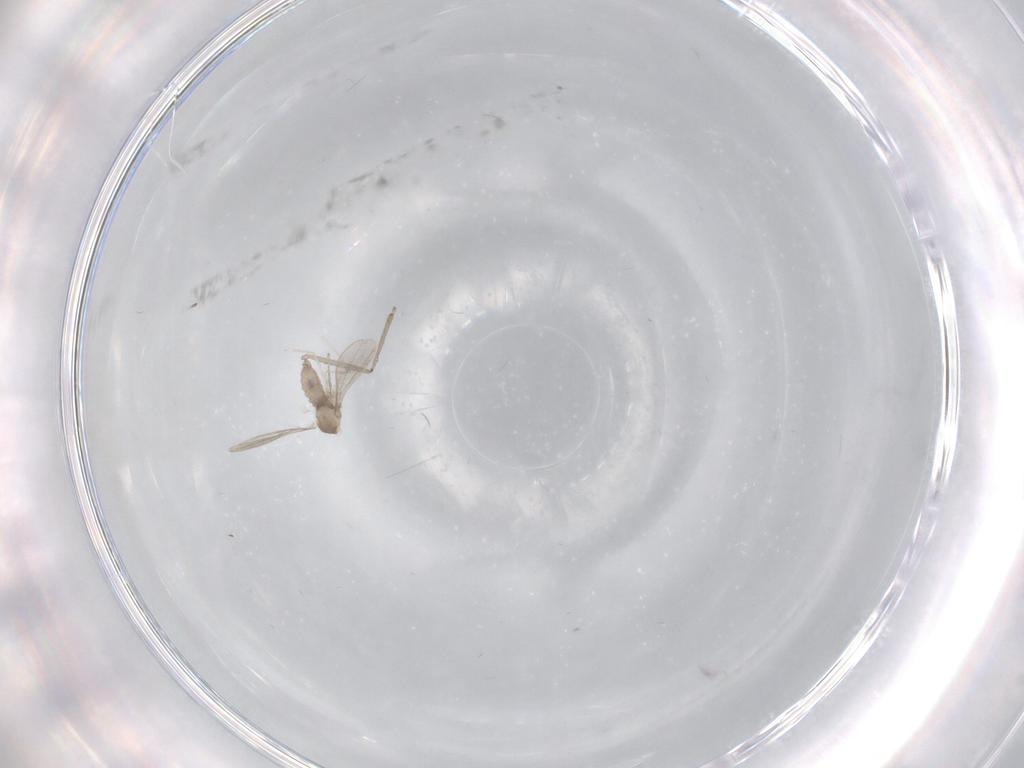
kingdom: Animalia
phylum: Arthropoda
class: Insecta
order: Diptera
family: Cecidomyiidae
